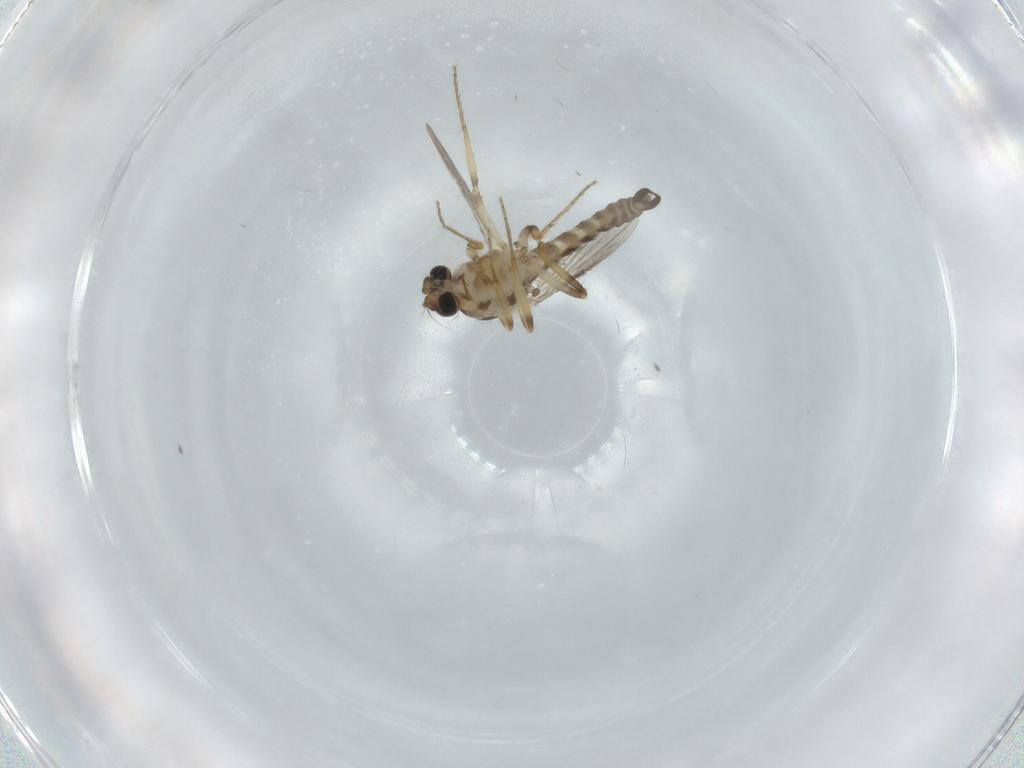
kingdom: Animalia
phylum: Arthropoda
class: Insecta
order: Diptera
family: Ceratopogonidae
